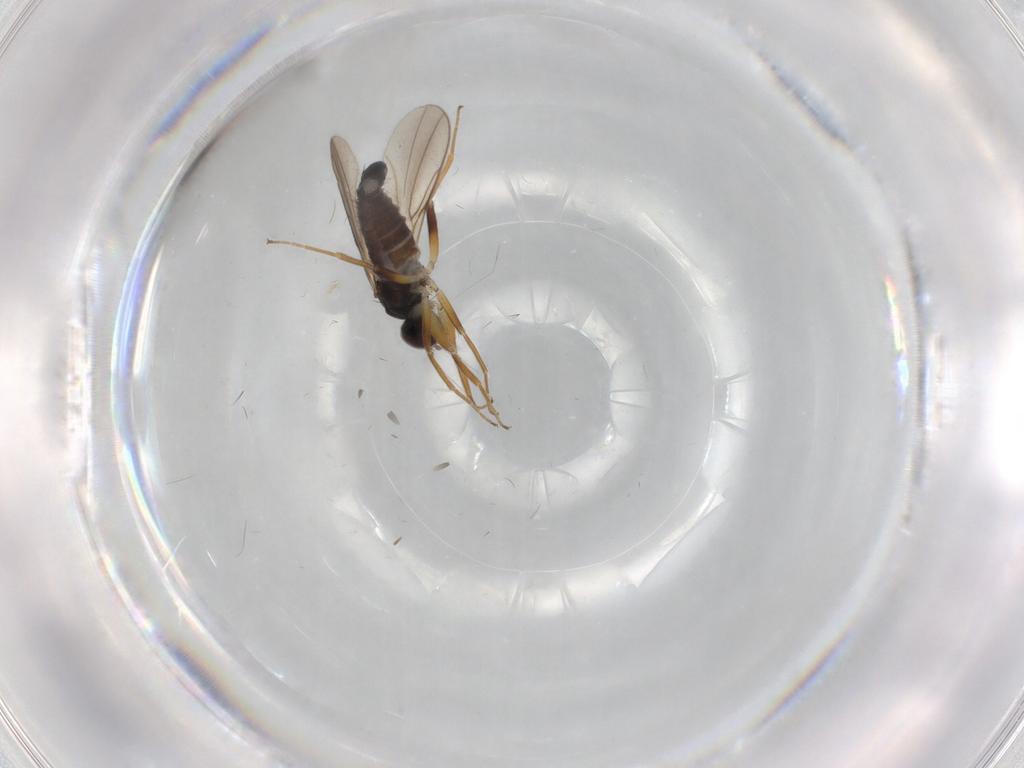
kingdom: Animalia
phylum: Arthropoda
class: Insecta
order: Diptera
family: Hybotidae
